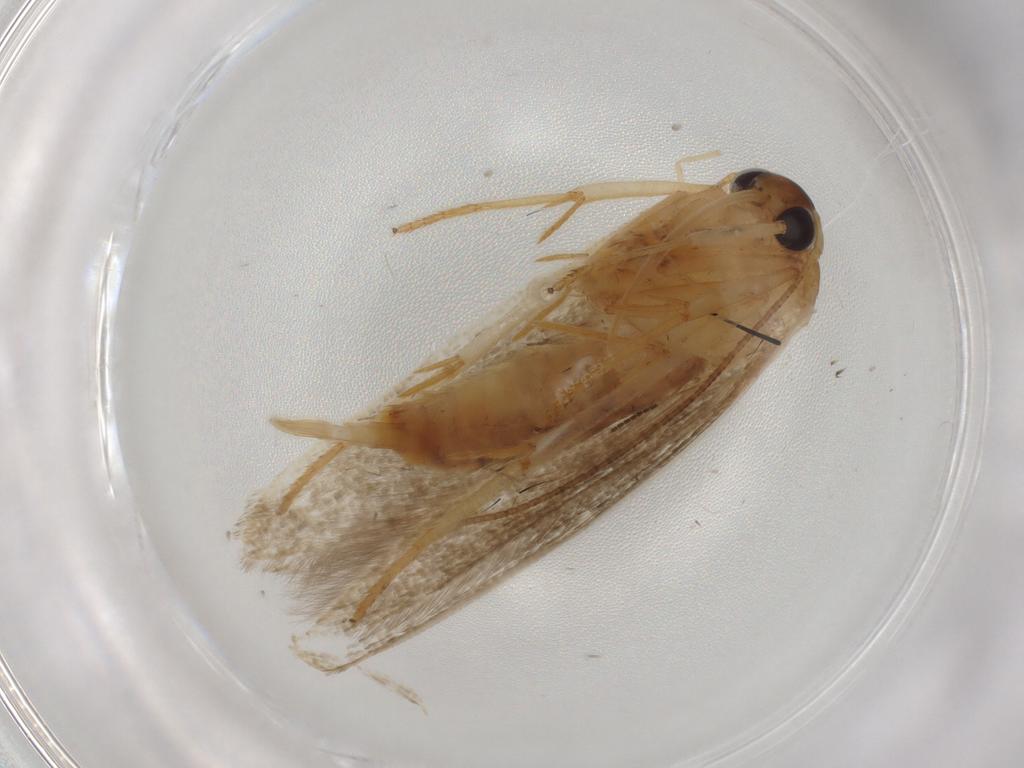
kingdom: Animalia
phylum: Arthropoda
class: Insecta
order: Lepidoptera
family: Blastobasidae
